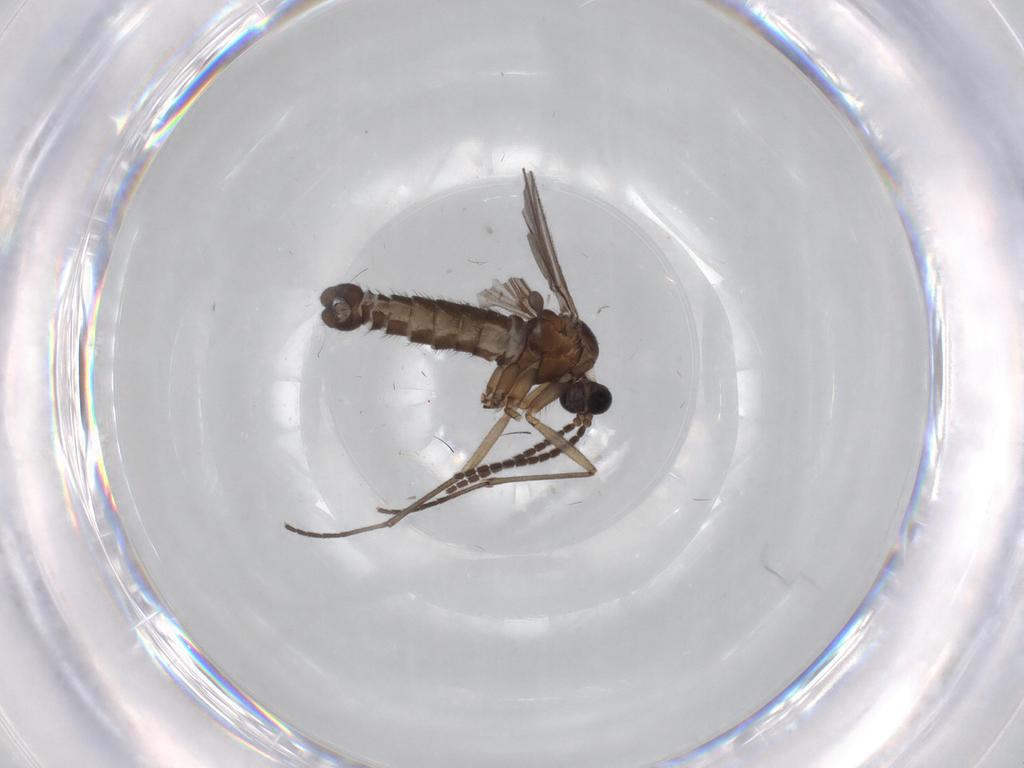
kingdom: Animalia
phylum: Arthropoda
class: Insecta
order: Diptera
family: Sciaridae
